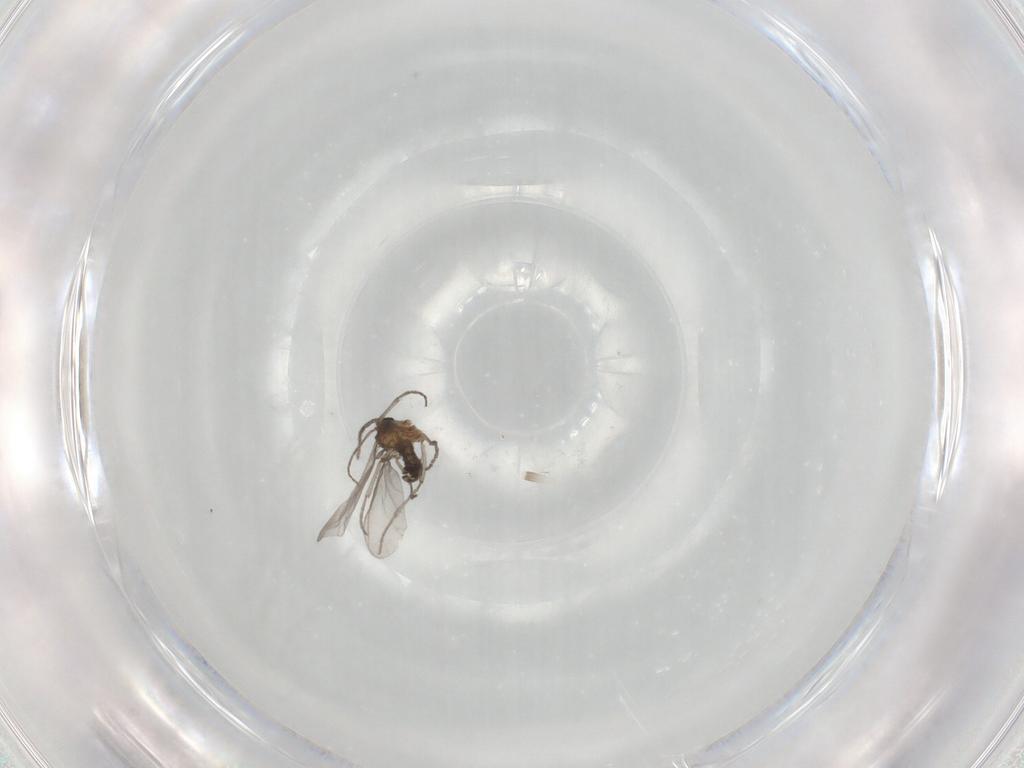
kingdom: Animalia
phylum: Arthropoda
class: Insecta
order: Diptera
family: Sciaridae
